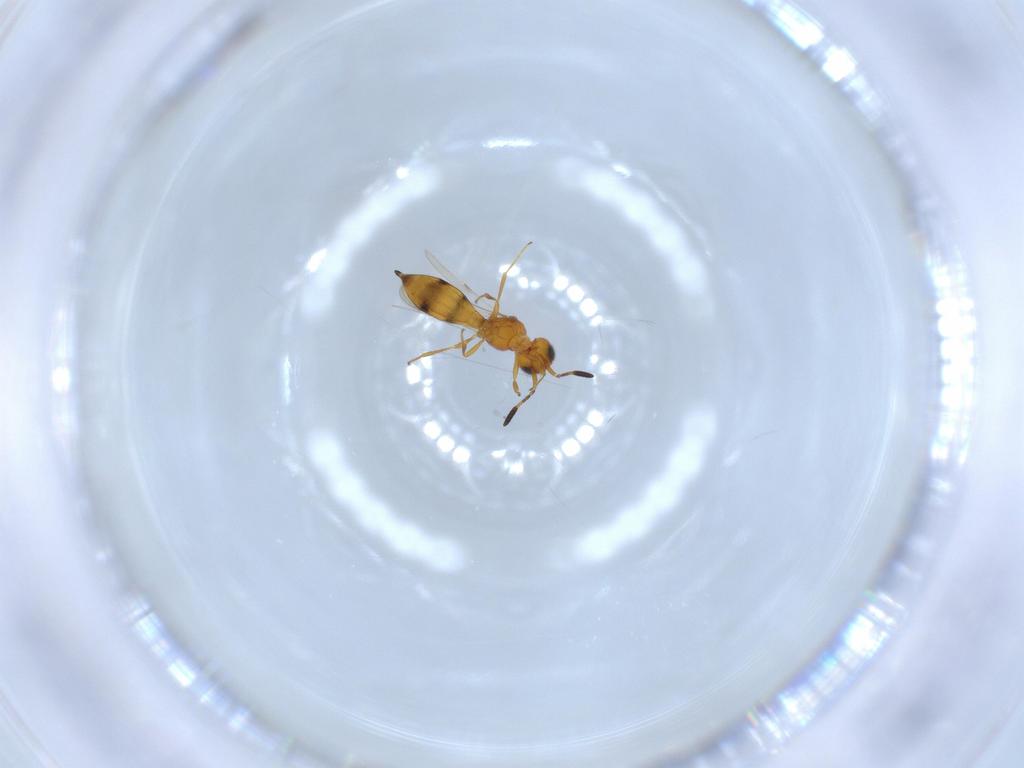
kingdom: Animalia
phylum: Arthropoda
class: Insecta
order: Hymenoptera
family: Scelionidae
